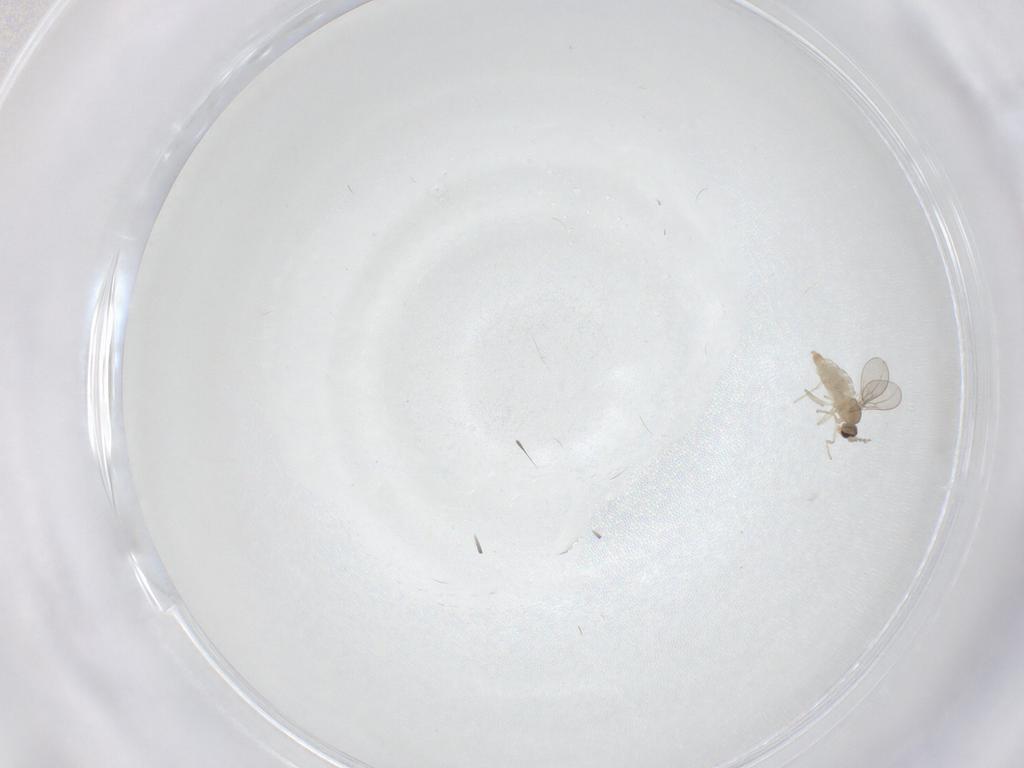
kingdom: Animalia
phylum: Arthropoda
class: Insecta
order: Diptera
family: Cecidomyiidae
